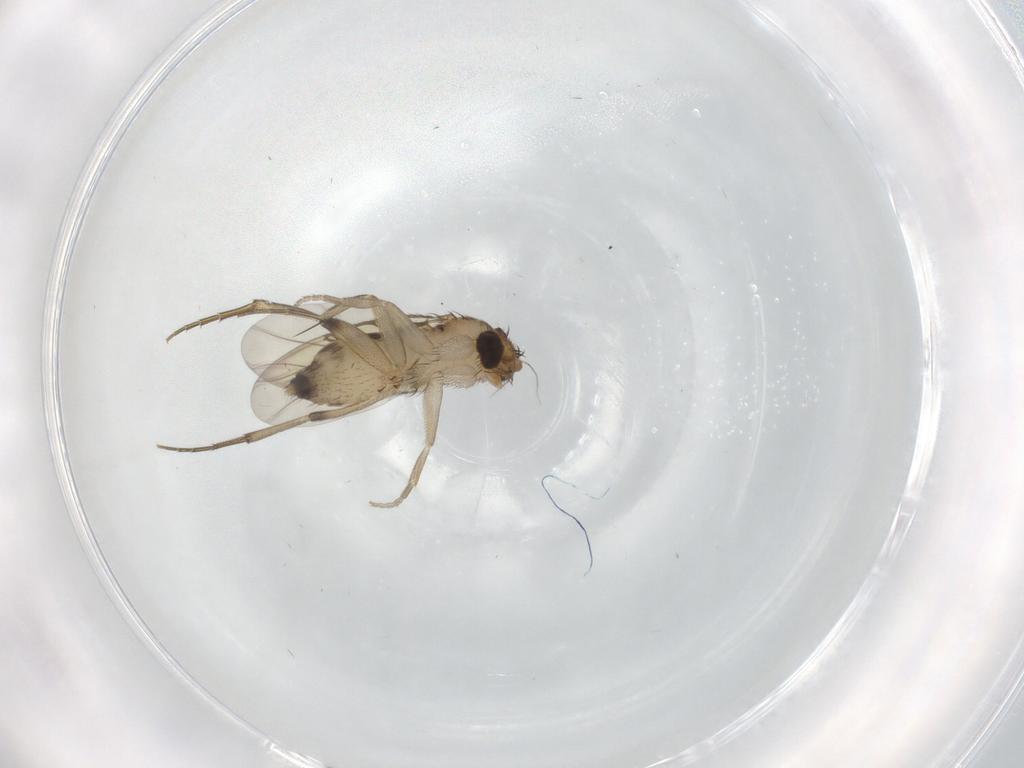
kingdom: Animalia
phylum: Arthropoda
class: Insecta
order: Diptera
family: Phoridae
